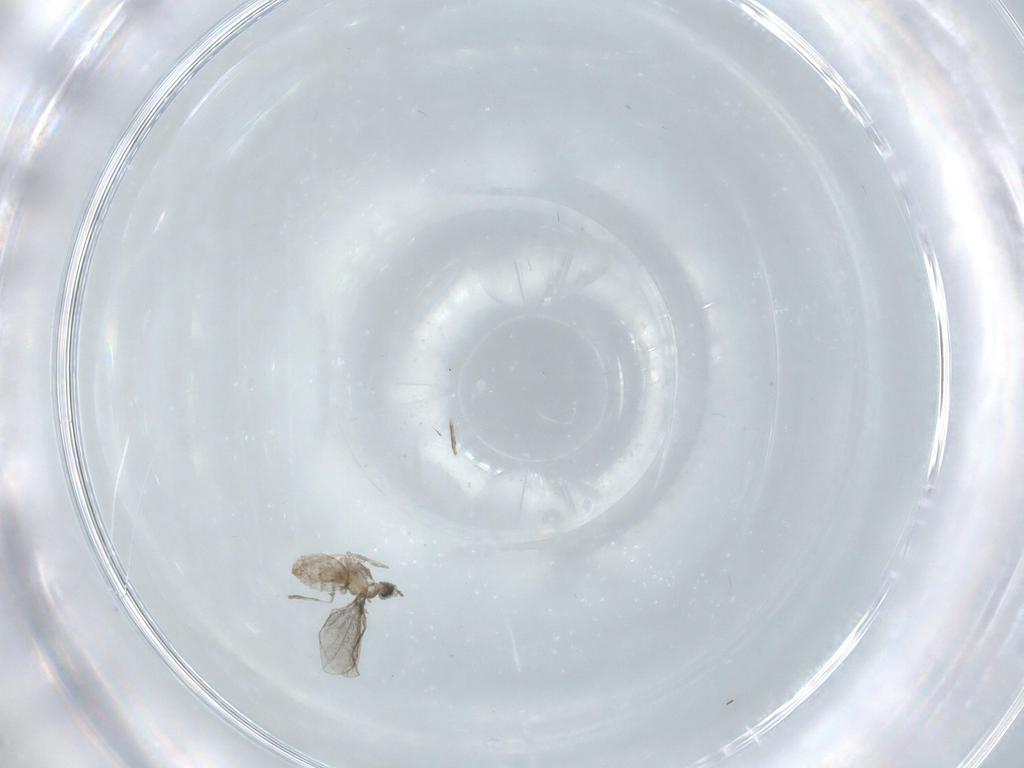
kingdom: Animalia
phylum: Arthropoda
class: Insecta
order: Diptera
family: Cecidomyiidae
